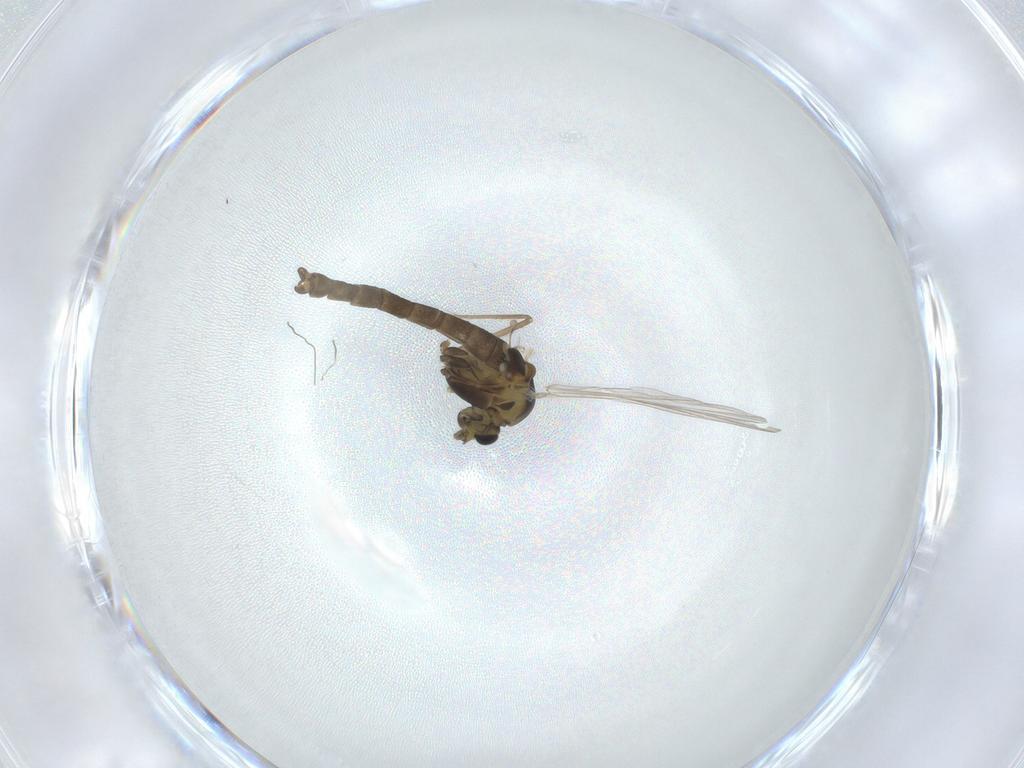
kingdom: Animalia
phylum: Arthropoda
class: Insecta
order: Diptera
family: Chironomidae
